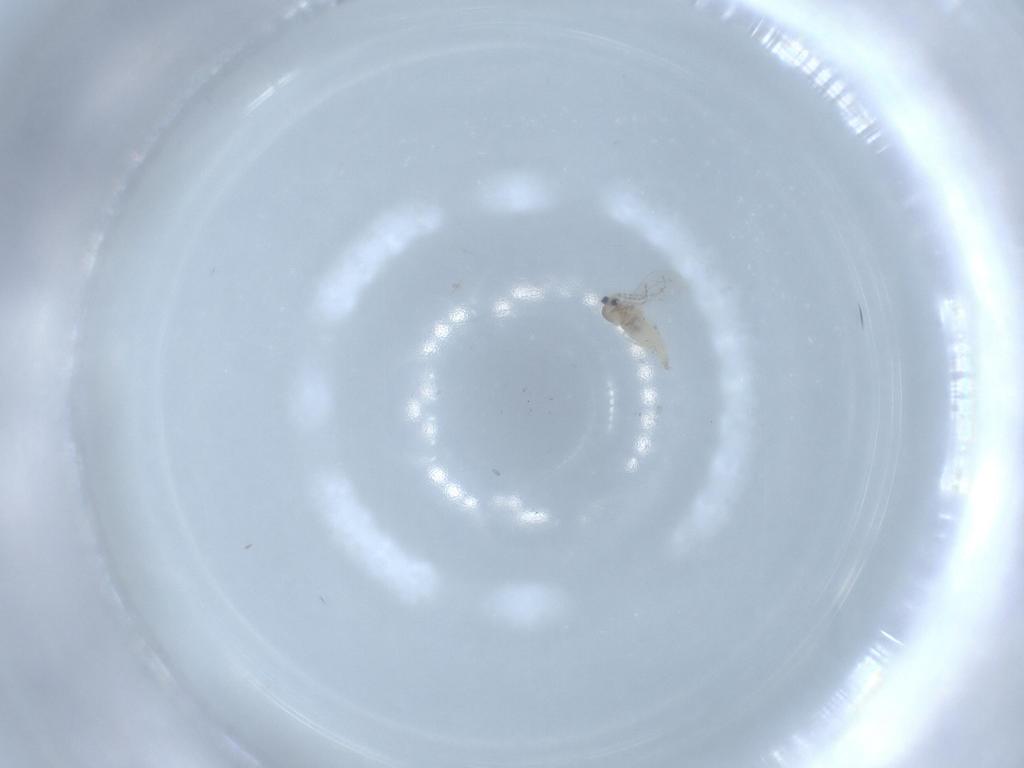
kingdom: Animalia
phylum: Arthropoda
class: Insecta
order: Diptera
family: Cecidomyiidae
